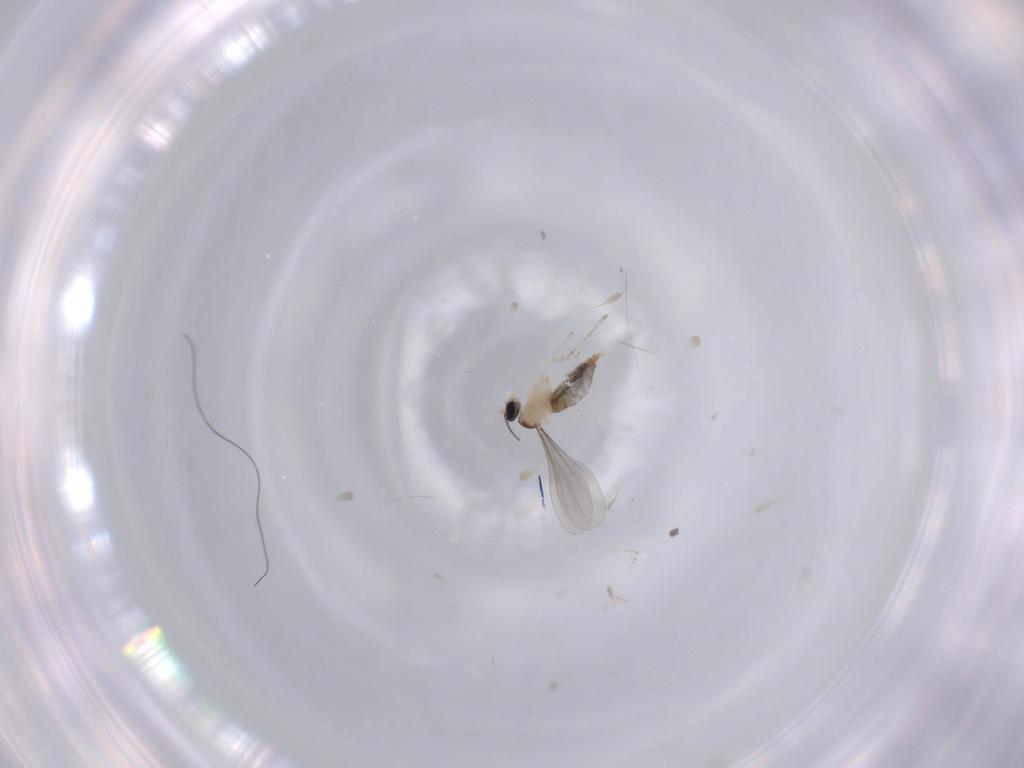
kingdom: Animalia
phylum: Arthropoda
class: Insecta
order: Diptera
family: Cecidomyiidae
